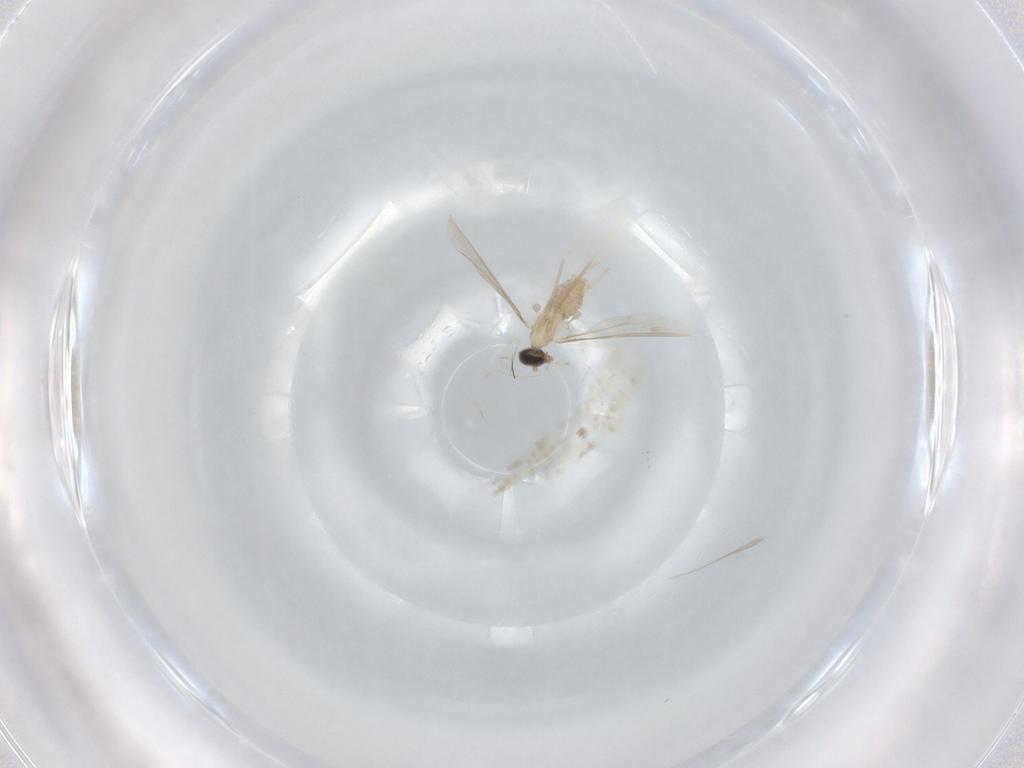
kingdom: Animalia
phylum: Arthropoda
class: Insecta
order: Diptera
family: Cecidomyiidae
